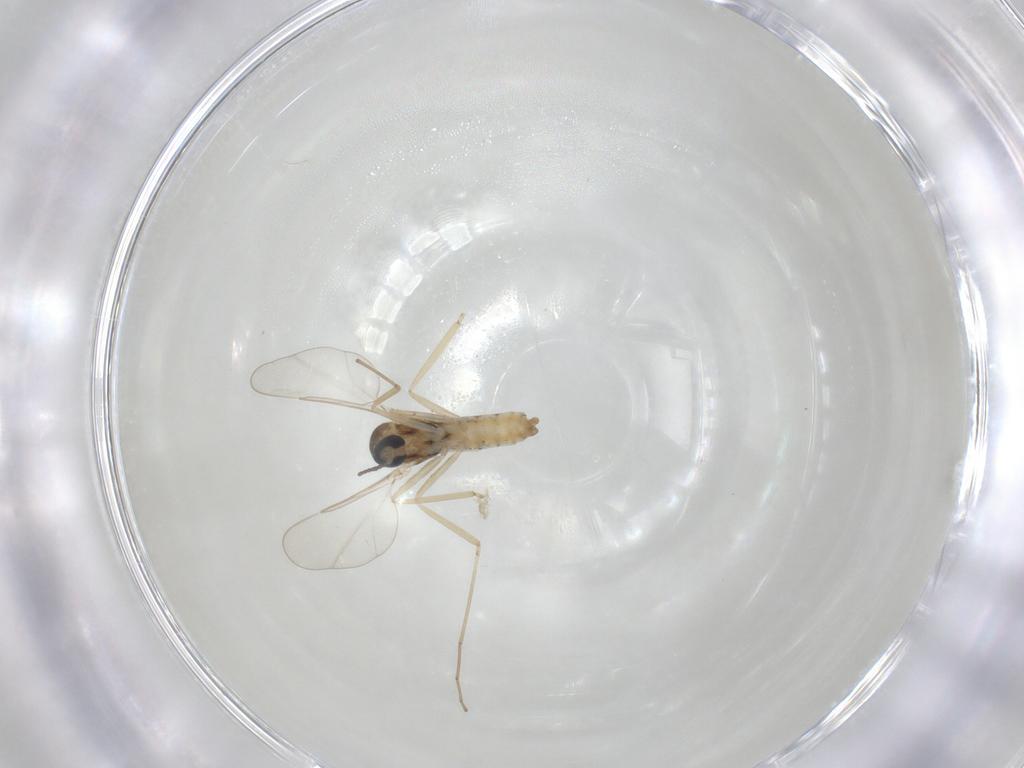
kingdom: Animalia
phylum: Arthropoda
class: Insecta
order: Diptera
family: Cecidomyiidae
